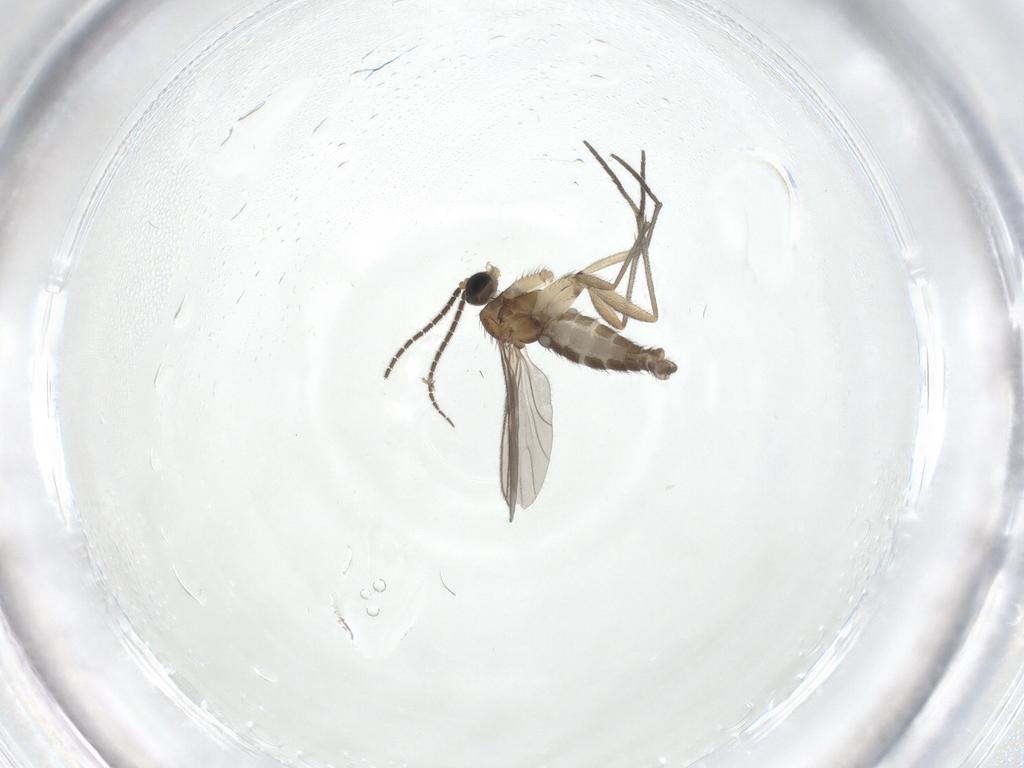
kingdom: Animalia
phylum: Arthropoda
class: Insecta
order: Diptera
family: Sciaridae
